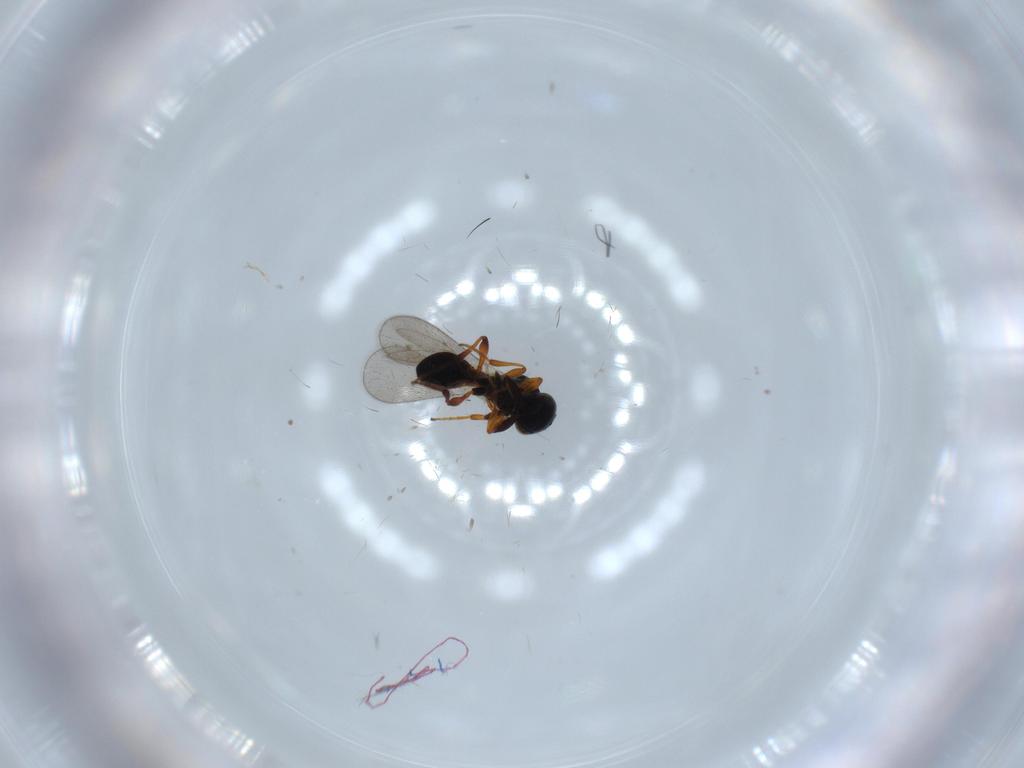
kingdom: Animalia
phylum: Arthropoda
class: Insecta
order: Hymenoptera
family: Platygastridae
